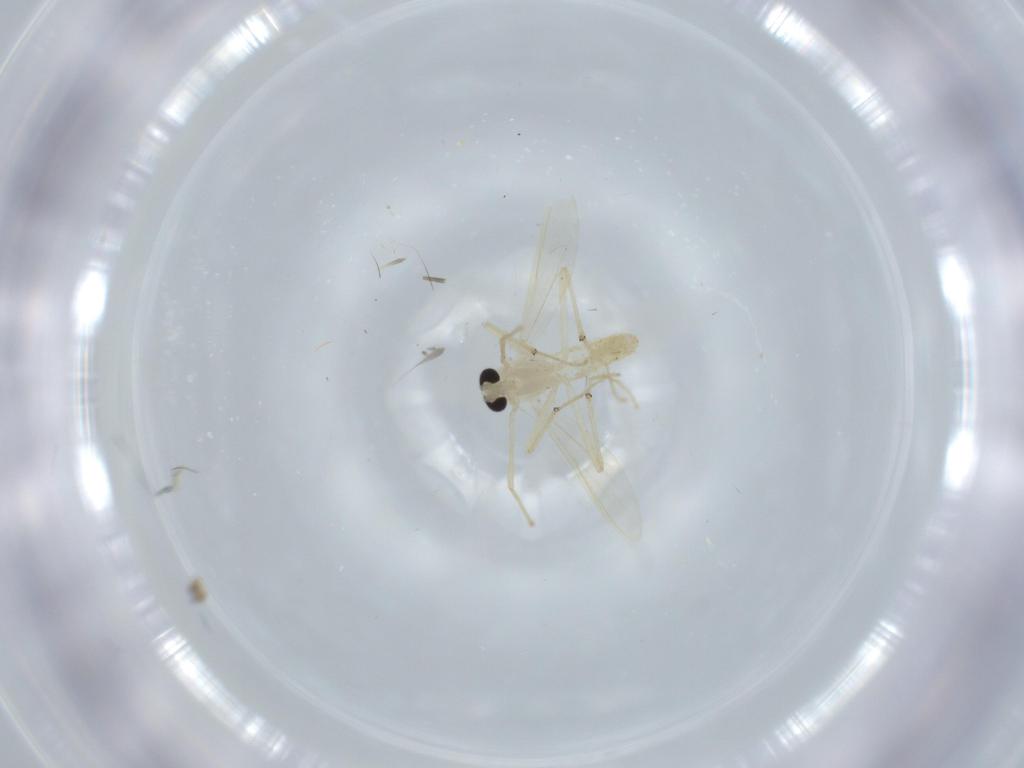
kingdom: Animalia
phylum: Arthropoda
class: Insecta
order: Diptera
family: Chironomidae
